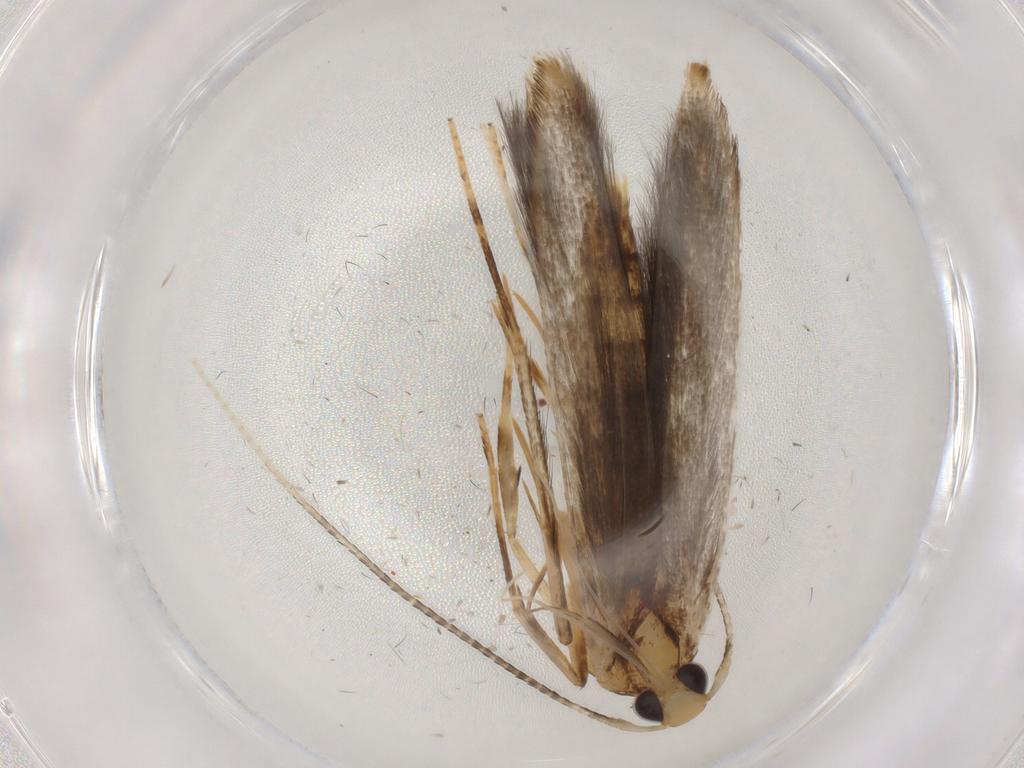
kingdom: Animalia
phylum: Arthropoda
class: Insecta
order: Lepidoptera
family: Pterolonchidae
